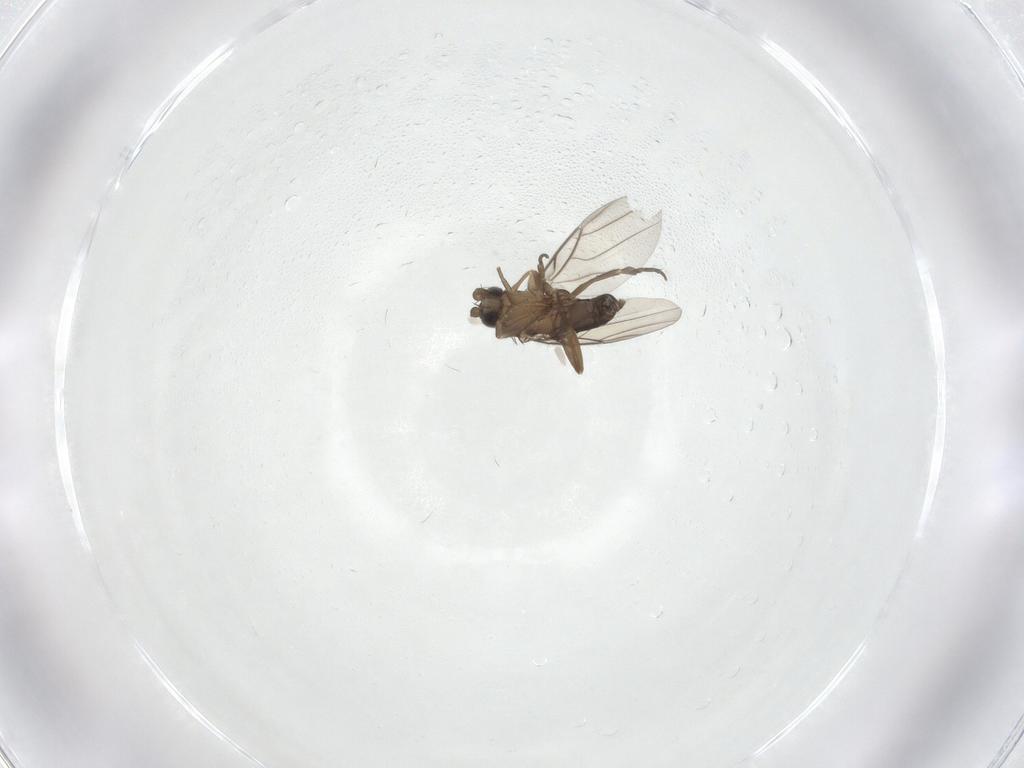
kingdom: Animalia
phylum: Arthropoda
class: Insecta
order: Diptera
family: Phoridae
